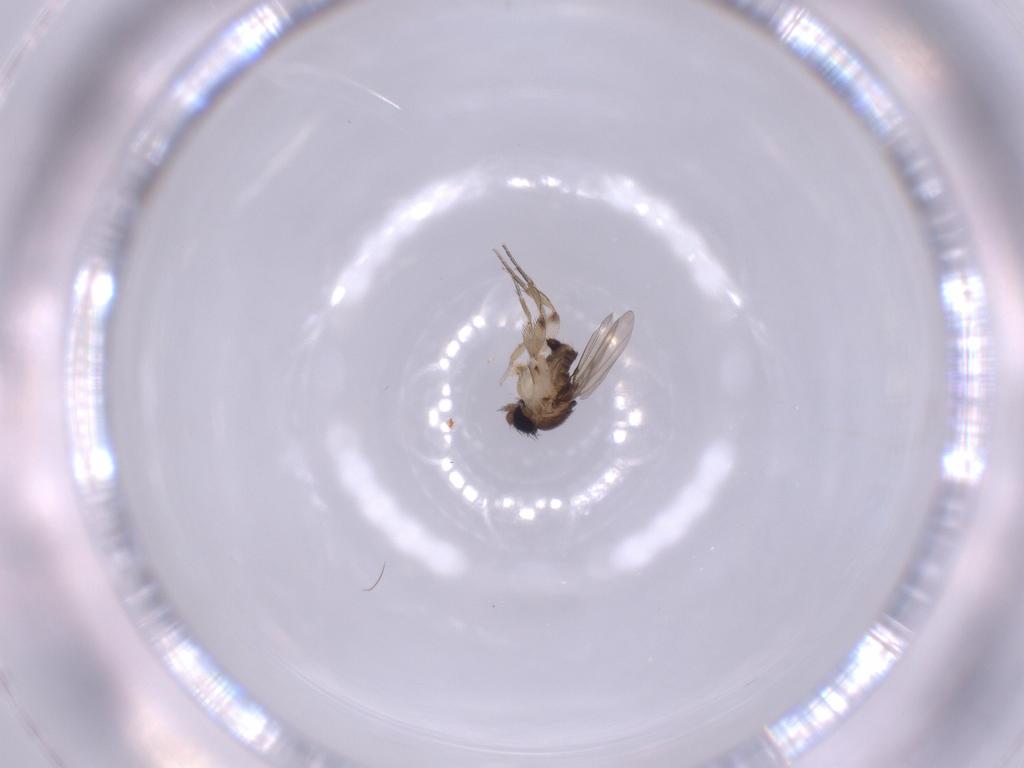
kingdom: Animalia
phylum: Arthropoda
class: Insecta
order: Diptera
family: Phoridae
